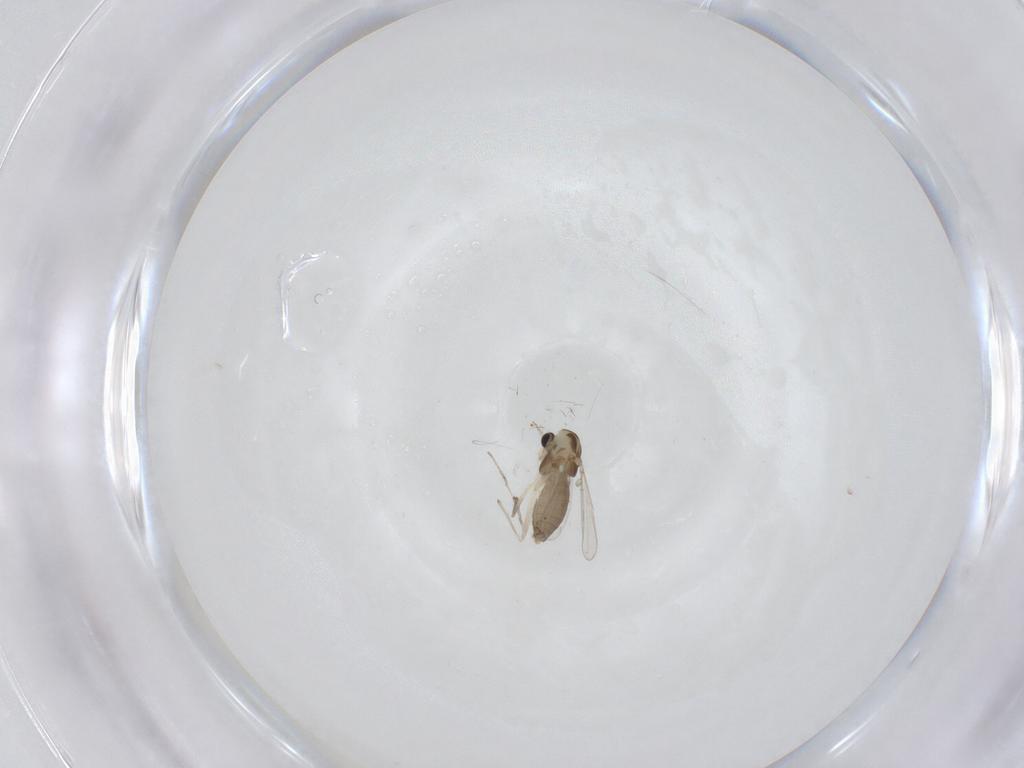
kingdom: Animalia
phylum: Arthropoda
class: Insecta
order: Diptera
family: Chironomidae
